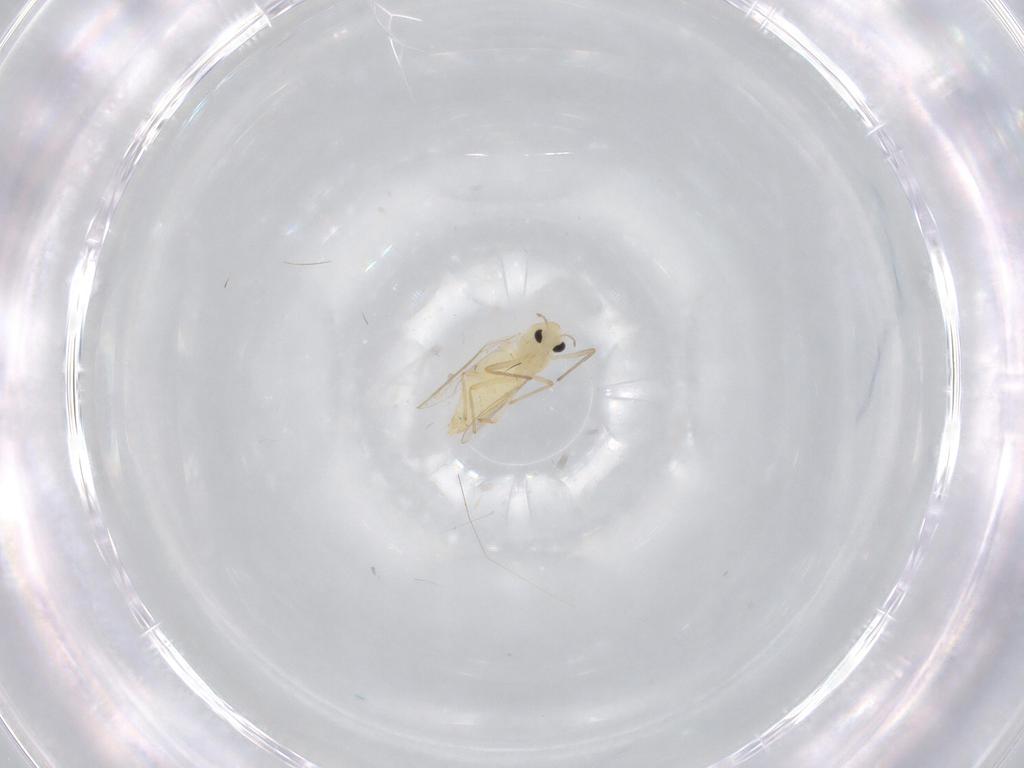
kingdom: Animalia
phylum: Arthropoda
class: Insecta
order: Diptera
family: Chironomidae
